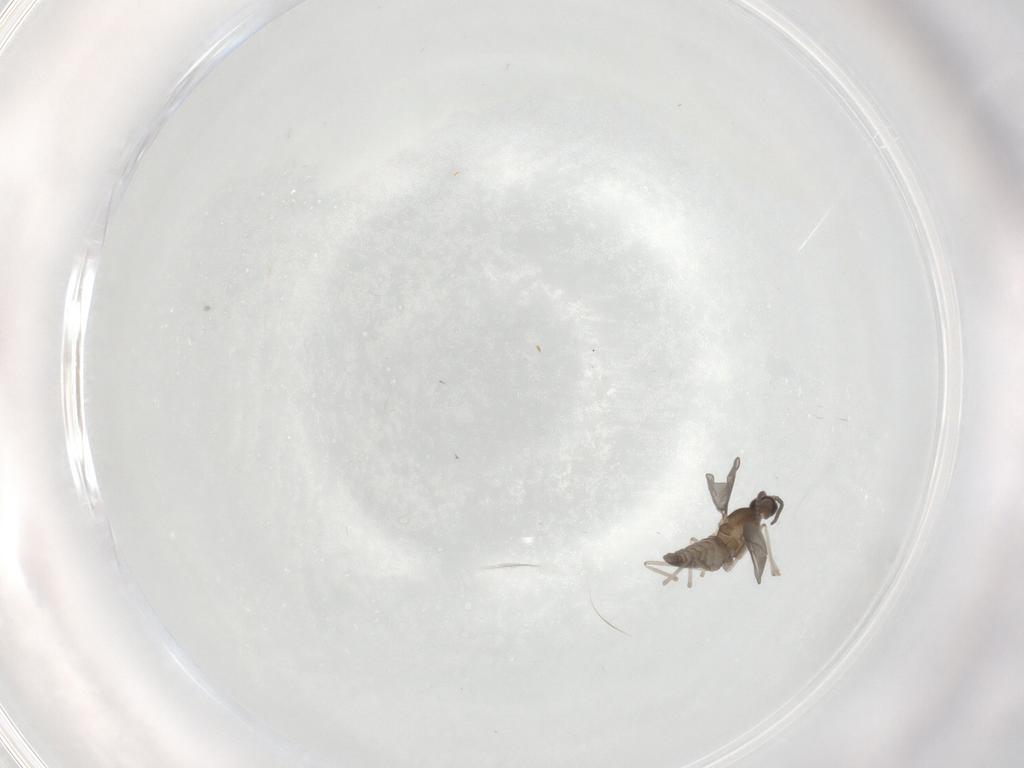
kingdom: Animalia
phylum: Arthropoda
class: Insecta
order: Diptera
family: Cecidomyiidae
